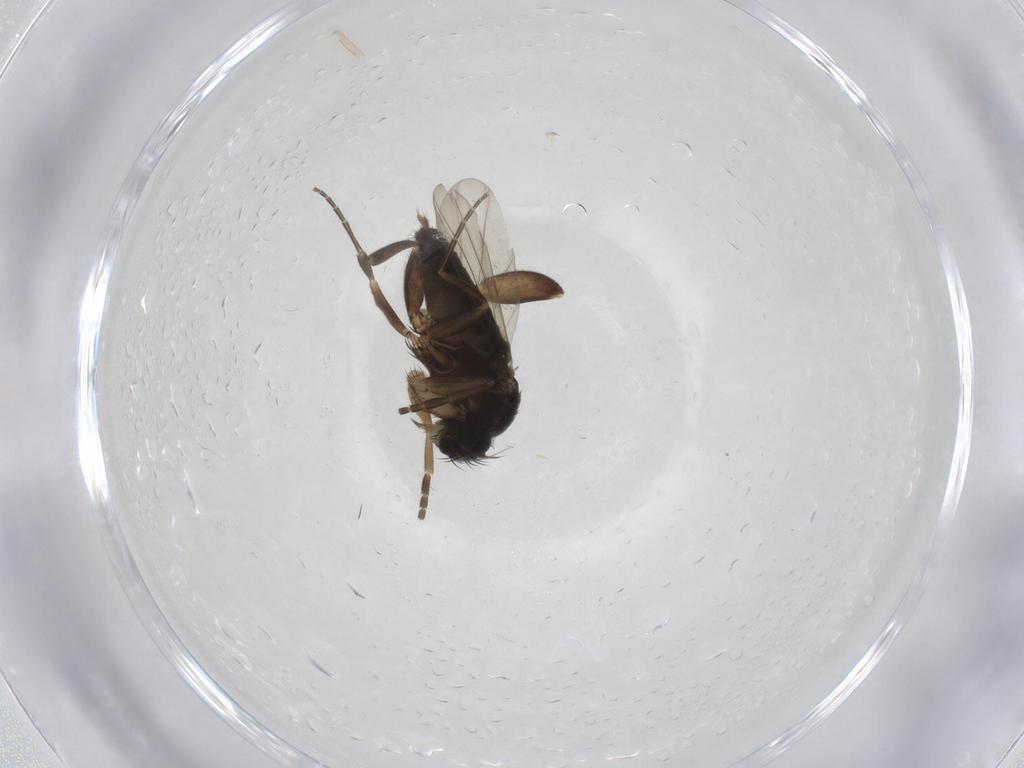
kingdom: Animalia
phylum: Arthropoda
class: Insecta
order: Diptera
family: Phoridae
